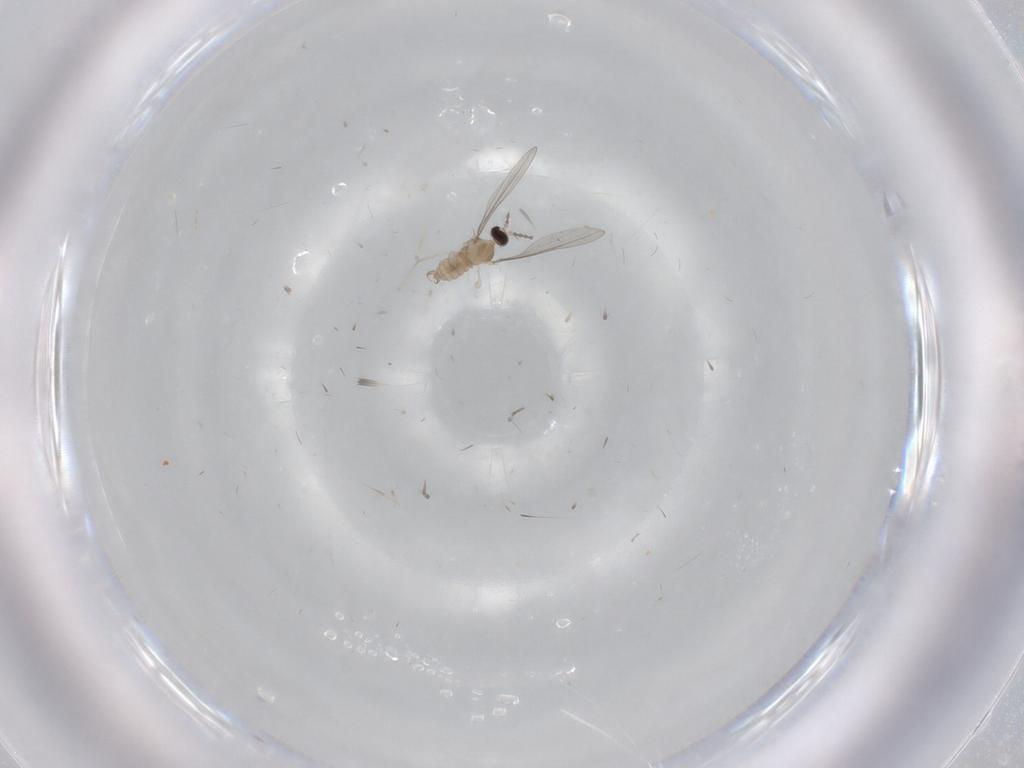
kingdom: Animalia
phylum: Arthropoda
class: Insecta
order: Diptera
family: Cecidomyiidae
